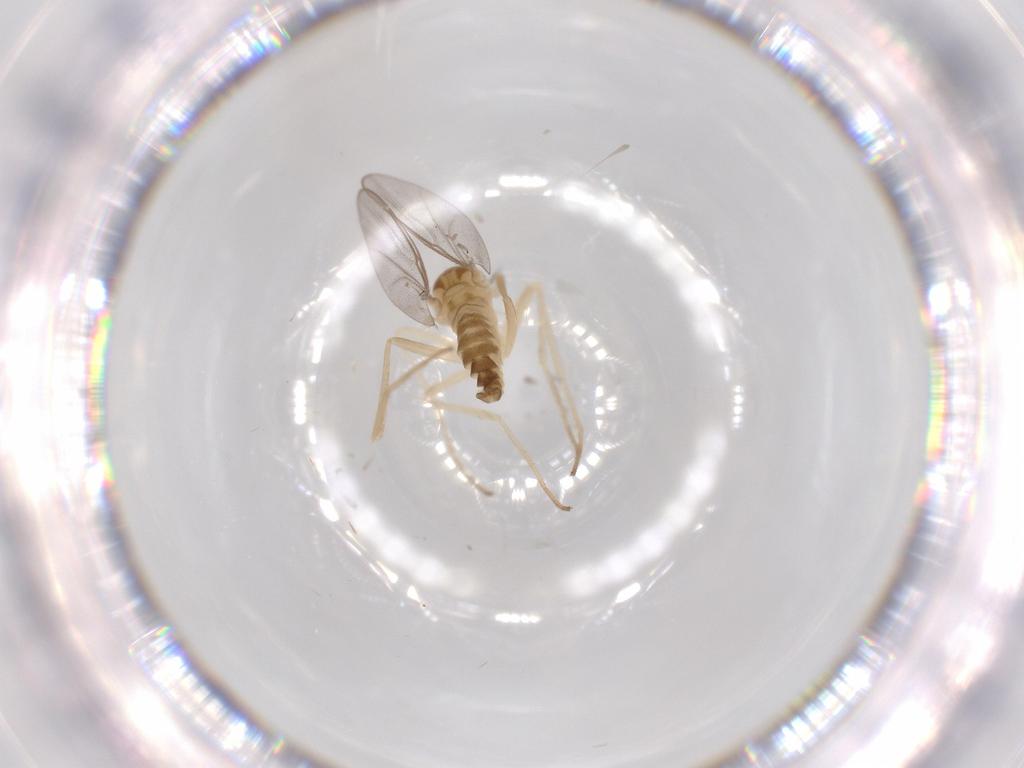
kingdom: Animalia
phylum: Arthropoda
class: Insecta
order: Diptera
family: Cecidomyiidae
